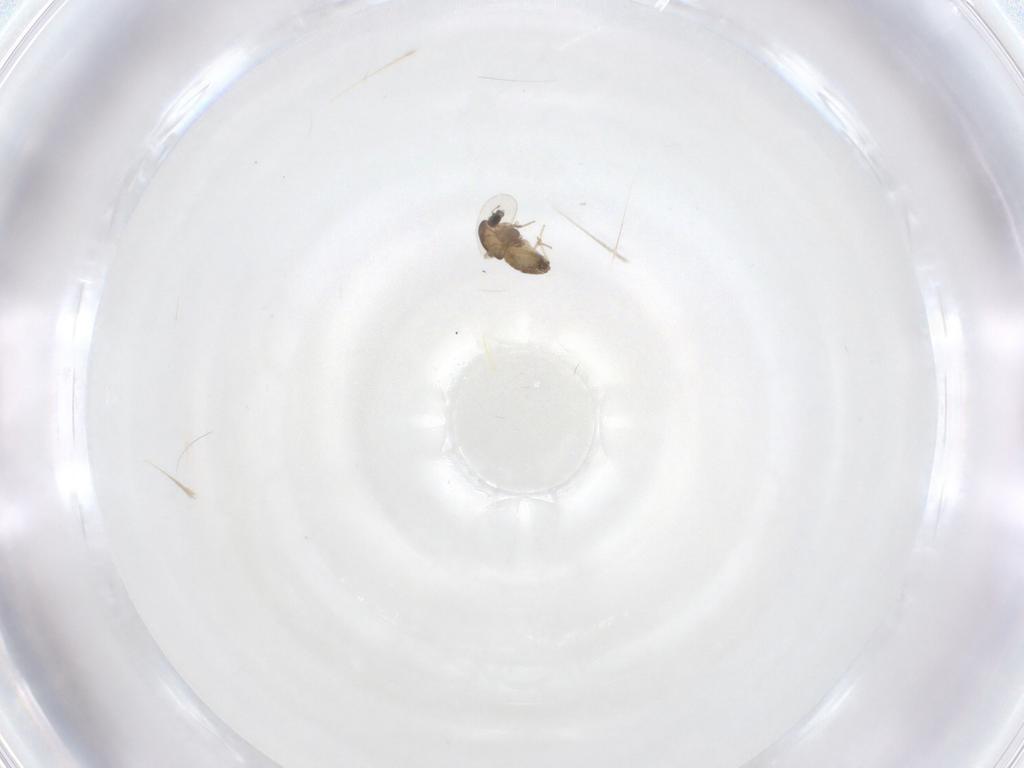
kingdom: Animalia
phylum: Arthropoda
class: Insecta
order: Diptera
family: Chironomidae
